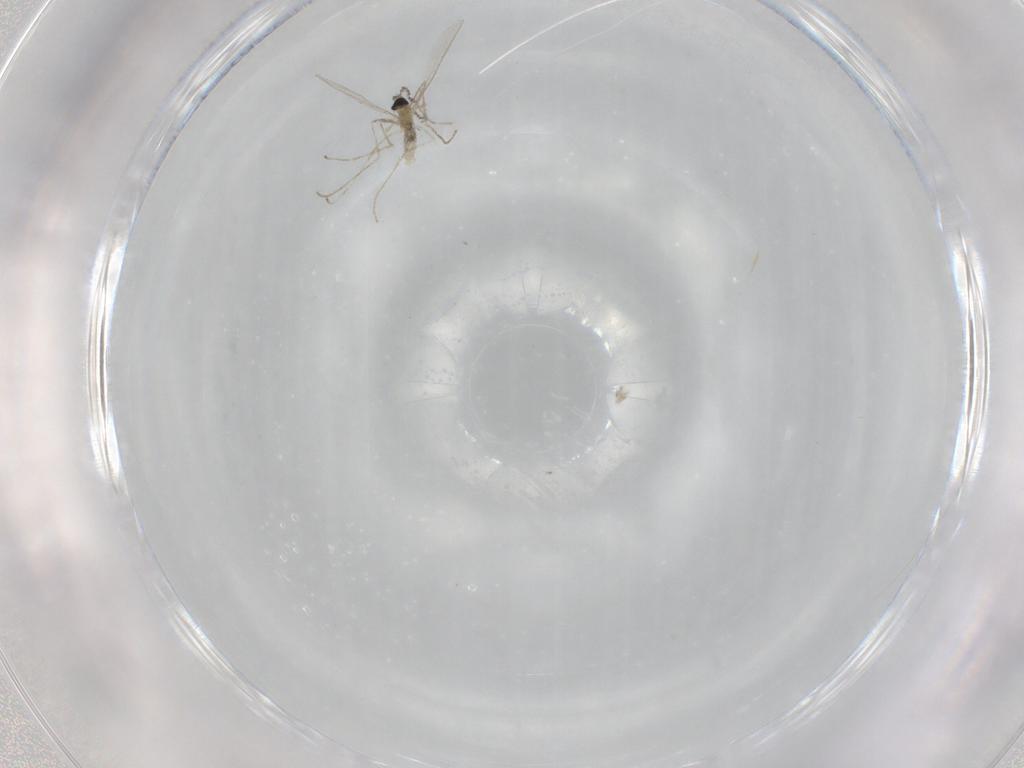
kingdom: Animalia
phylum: Arthropoda
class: Insecta
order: Diptera
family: Cecidomyiidae
